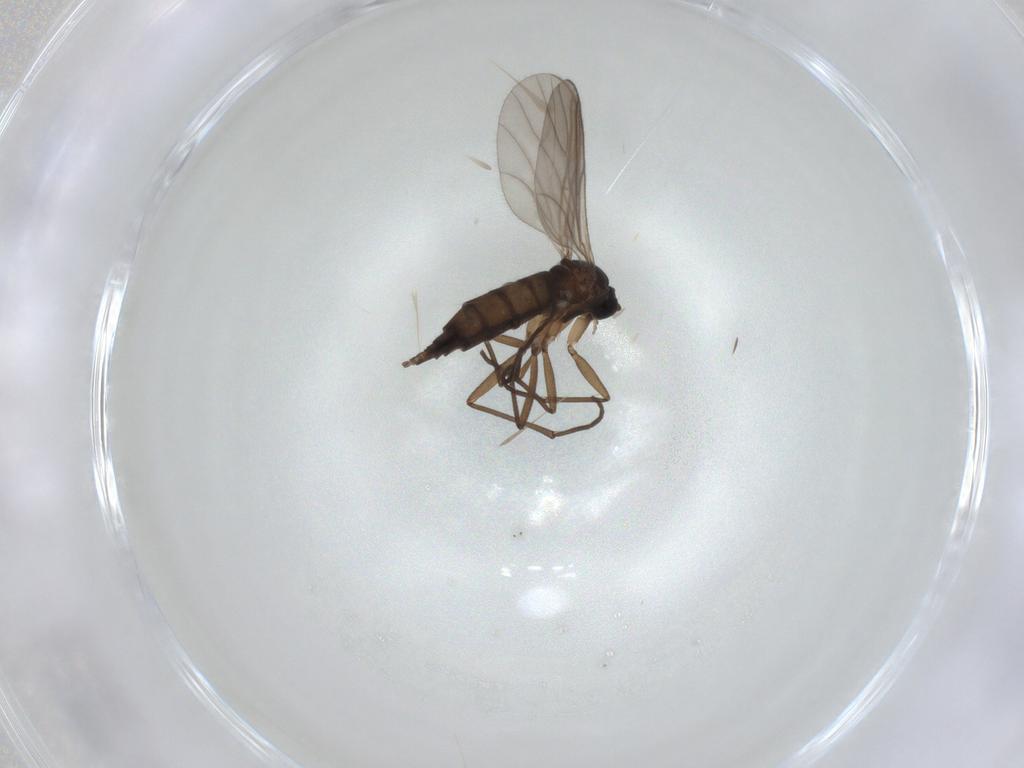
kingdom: Animalia
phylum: Arthropoda
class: Insecta
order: Diptera
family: Sciaridae
